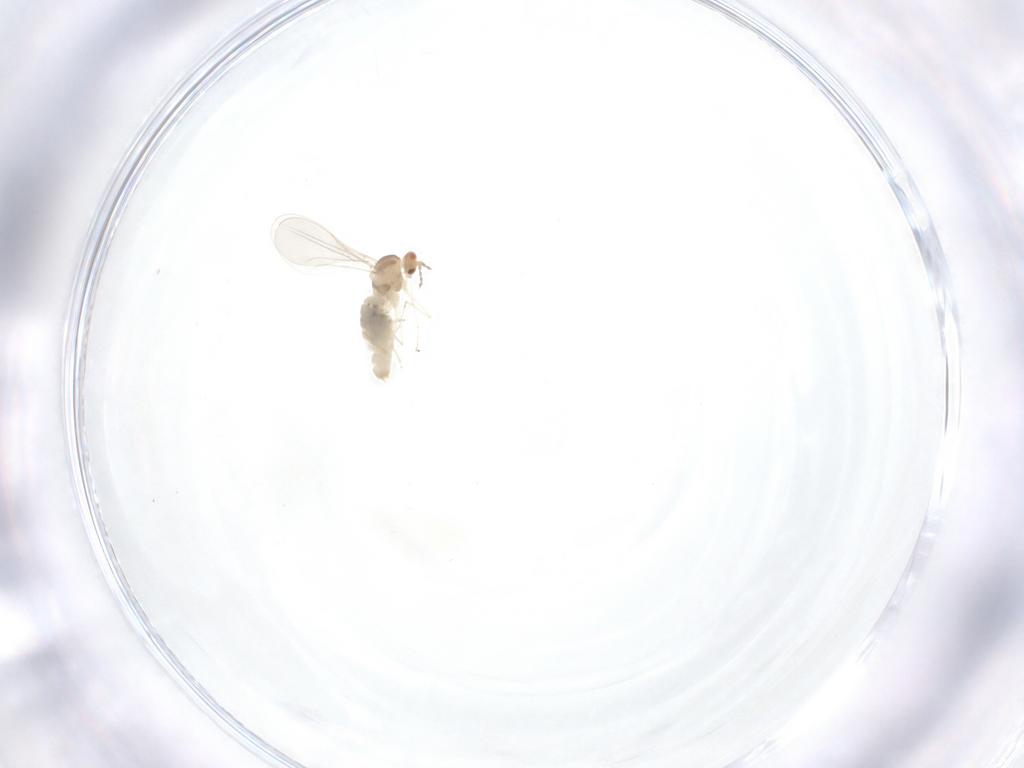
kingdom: Animalia
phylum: Arthropoda
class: Insecta
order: Diptera
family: Cecidomyiidae
